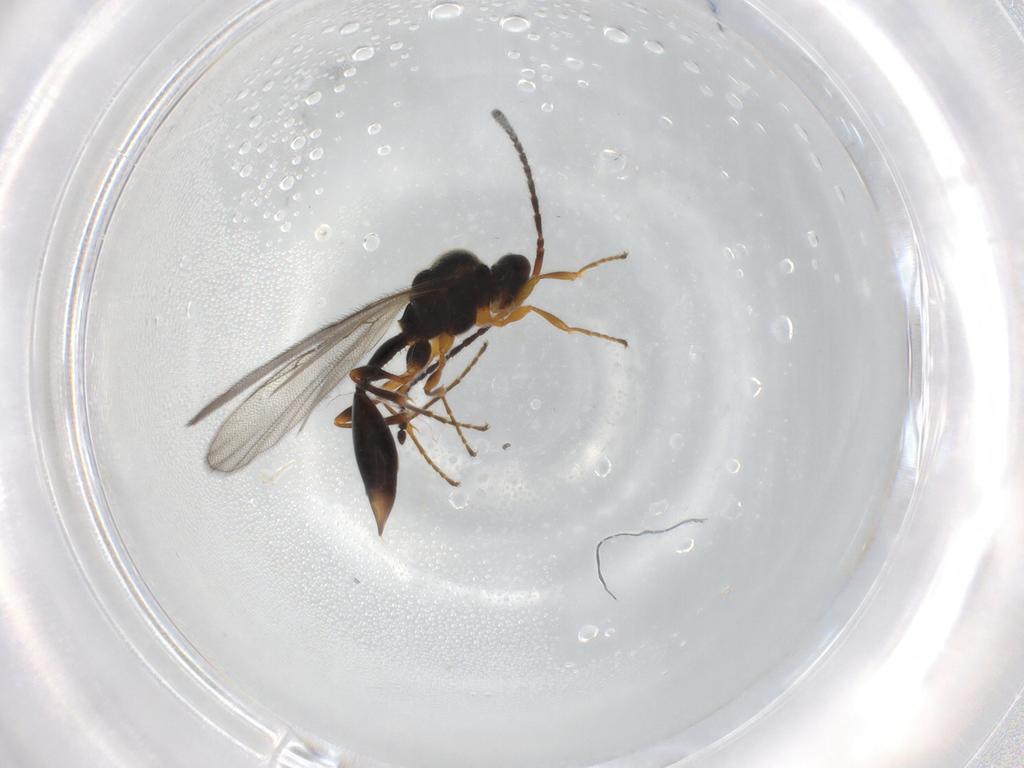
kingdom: Animalia
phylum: Arthropoda
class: Insecta
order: Hymenoptera
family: Diapriidae
